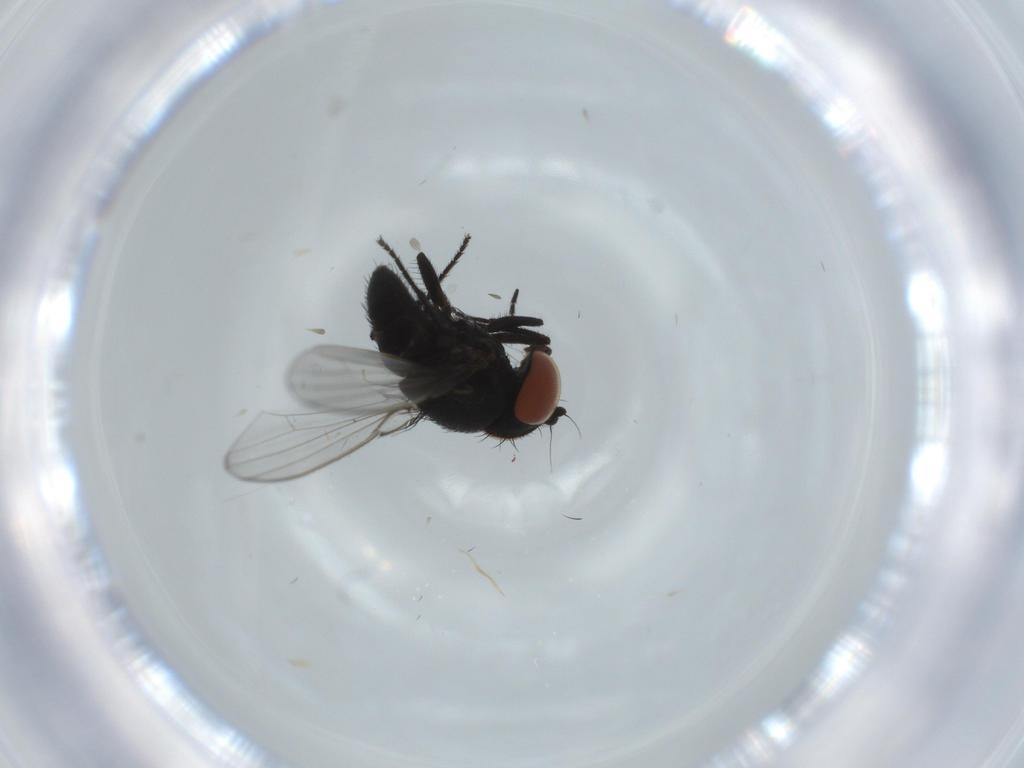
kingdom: Animalia
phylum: Arthropoda
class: Insecta
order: Diptera
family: Milichiidae
